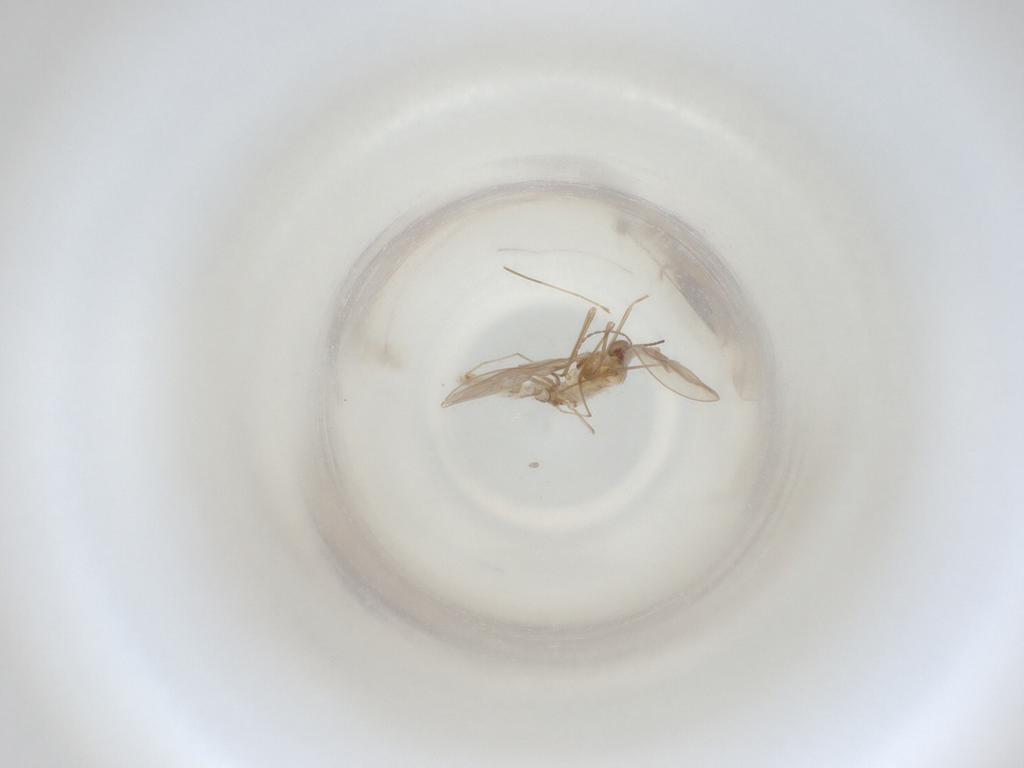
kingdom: Animalia
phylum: Arthropoda
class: Insecta
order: Diptera
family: Cecidomyiidae
